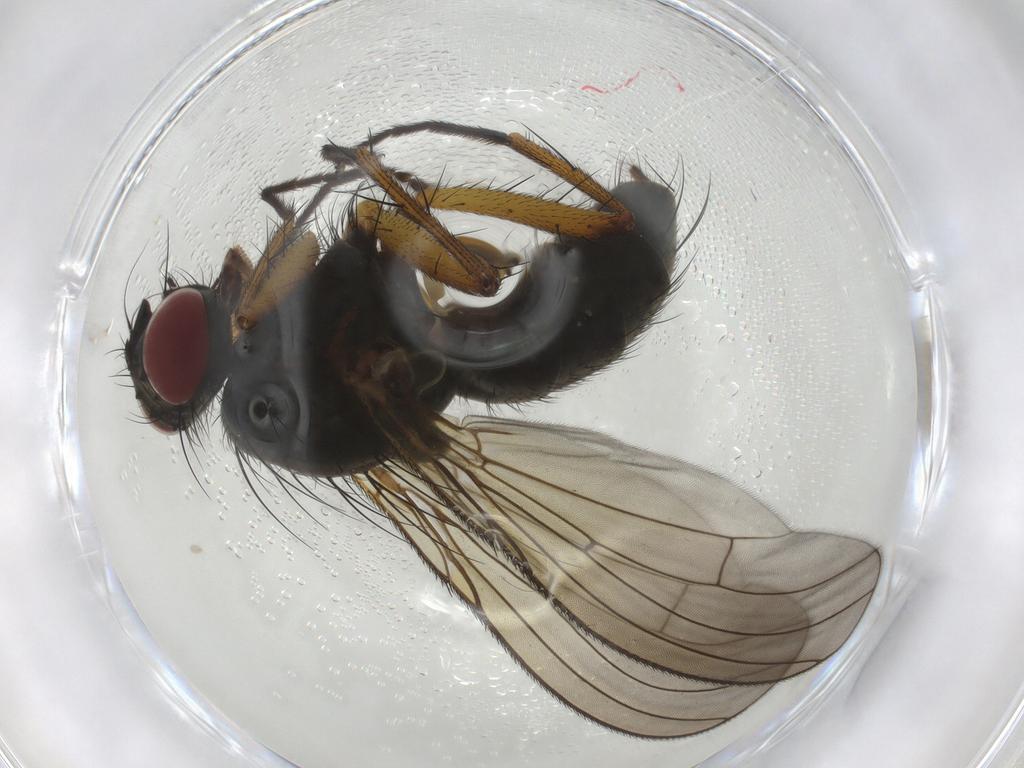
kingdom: Animalia
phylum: Arthropoda
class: Insecta
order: Diptera
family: Muscidae
